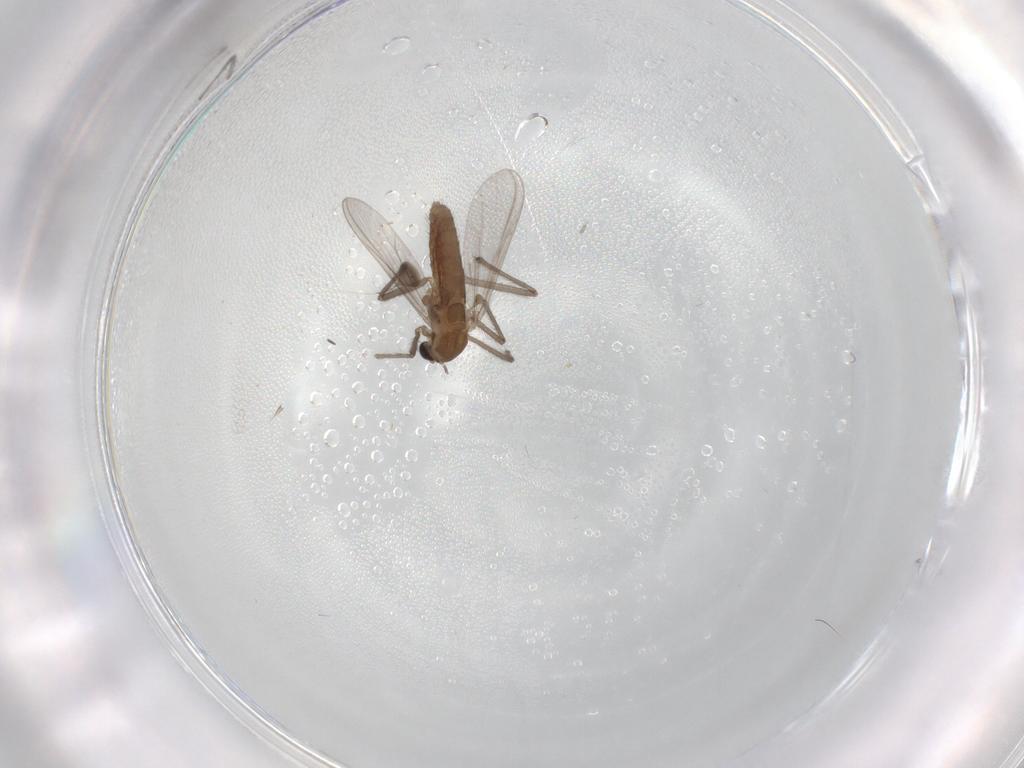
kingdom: Animalia
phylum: Arthropoda
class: Insecta
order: Diptera
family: Chironomidae
